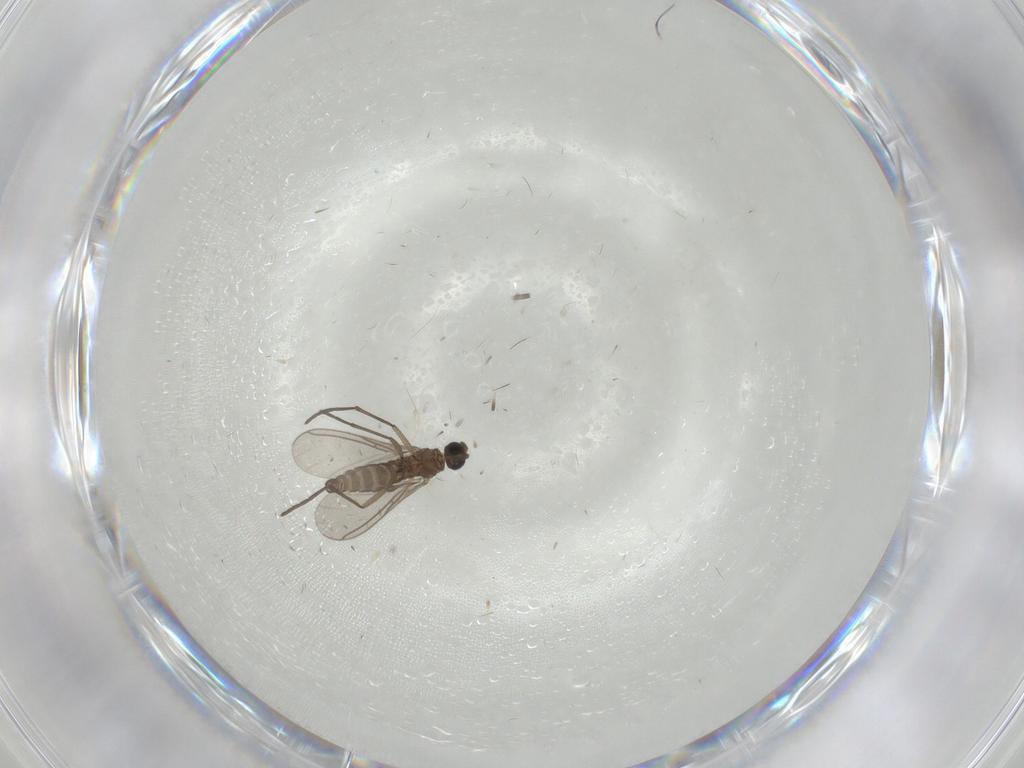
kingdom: Animalia
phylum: Arthropoda
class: Insecta
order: Diptera
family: Sciaridae
